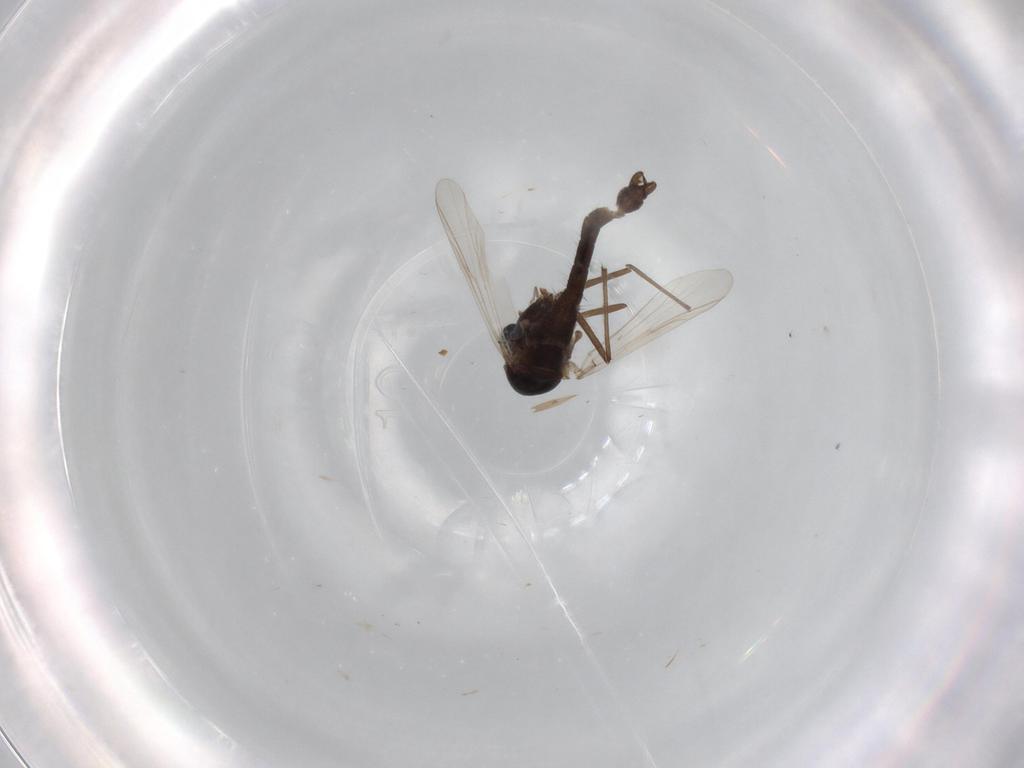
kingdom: Animalia
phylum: Arthropoda
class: Insecta
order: Diptera
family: Chironomidae
